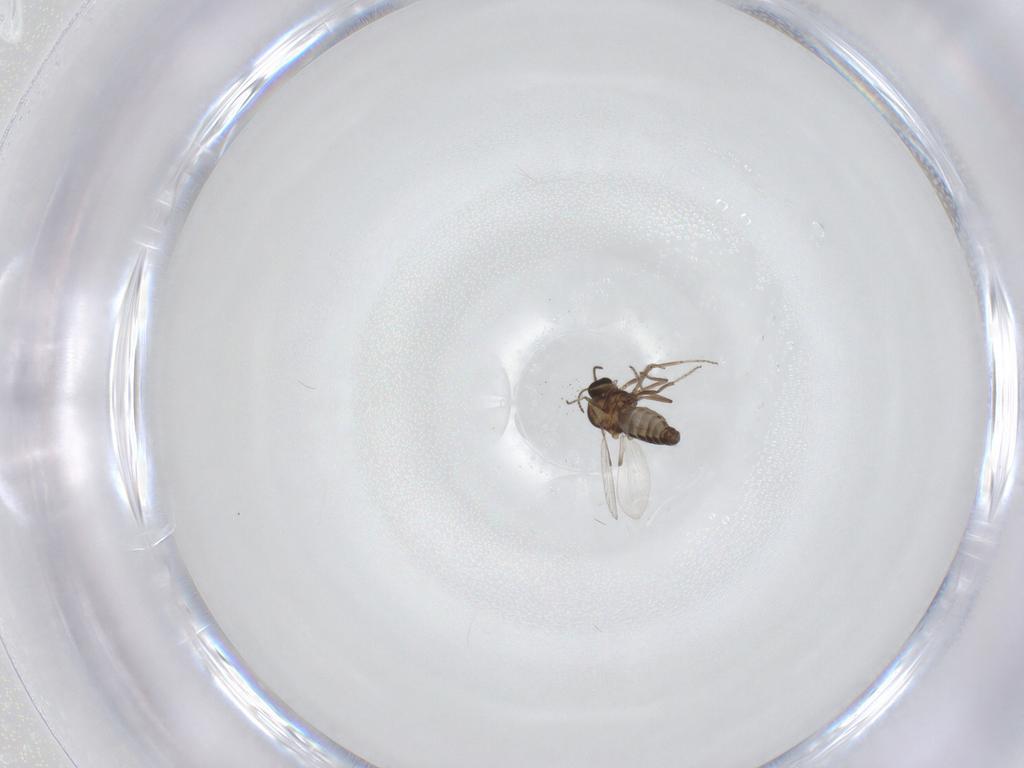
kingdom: Animalia
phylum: Arthropoda
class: Insecta
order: Diptera
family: Ceratopogonidae
